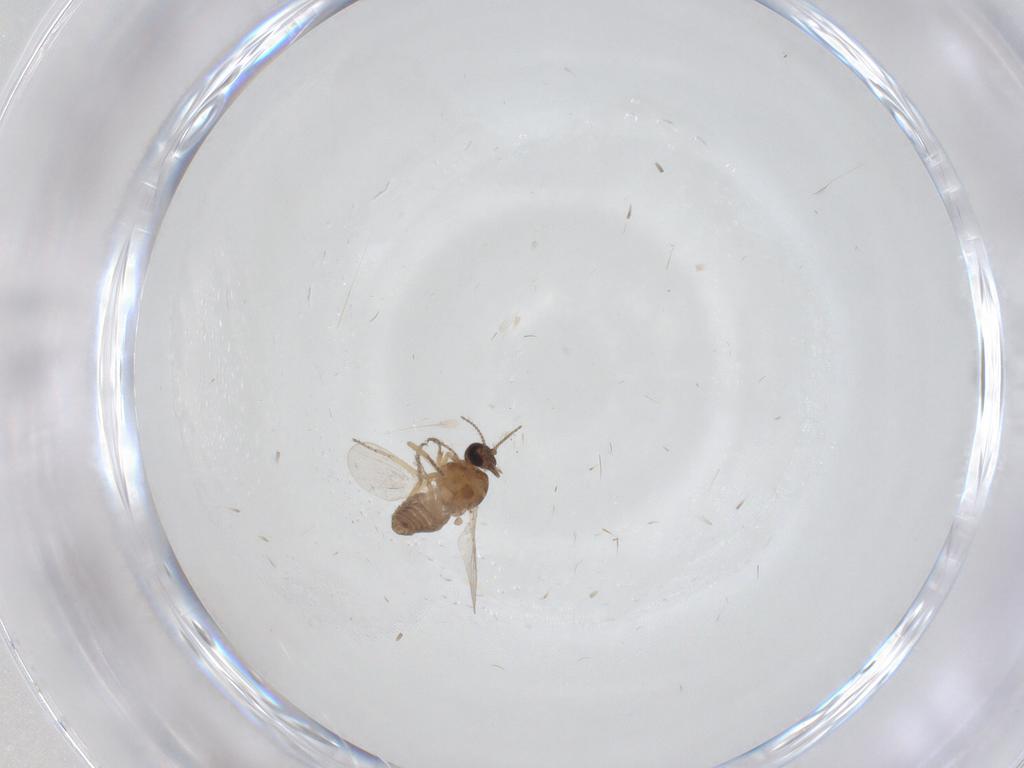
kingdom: Animalia
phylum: Arthropoda
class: Insecta
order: Diptera
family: Ceratopogonidae
